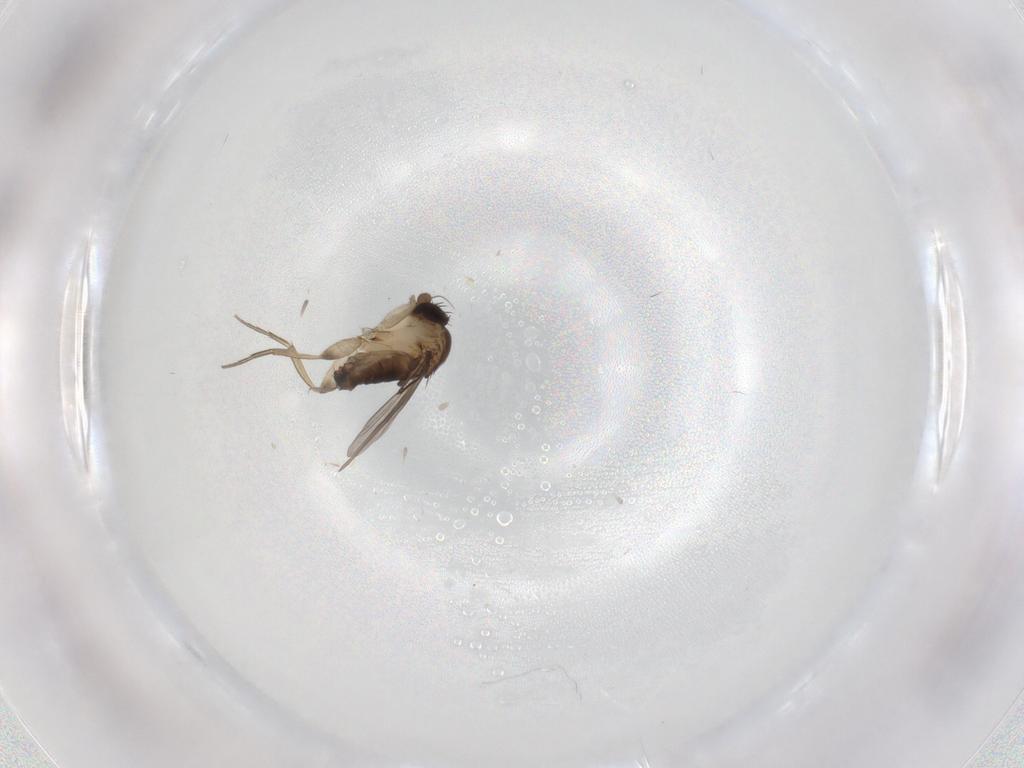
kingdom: Animalia
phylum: Arthropoda
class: Insecta
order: Diptera
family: Phoridae
